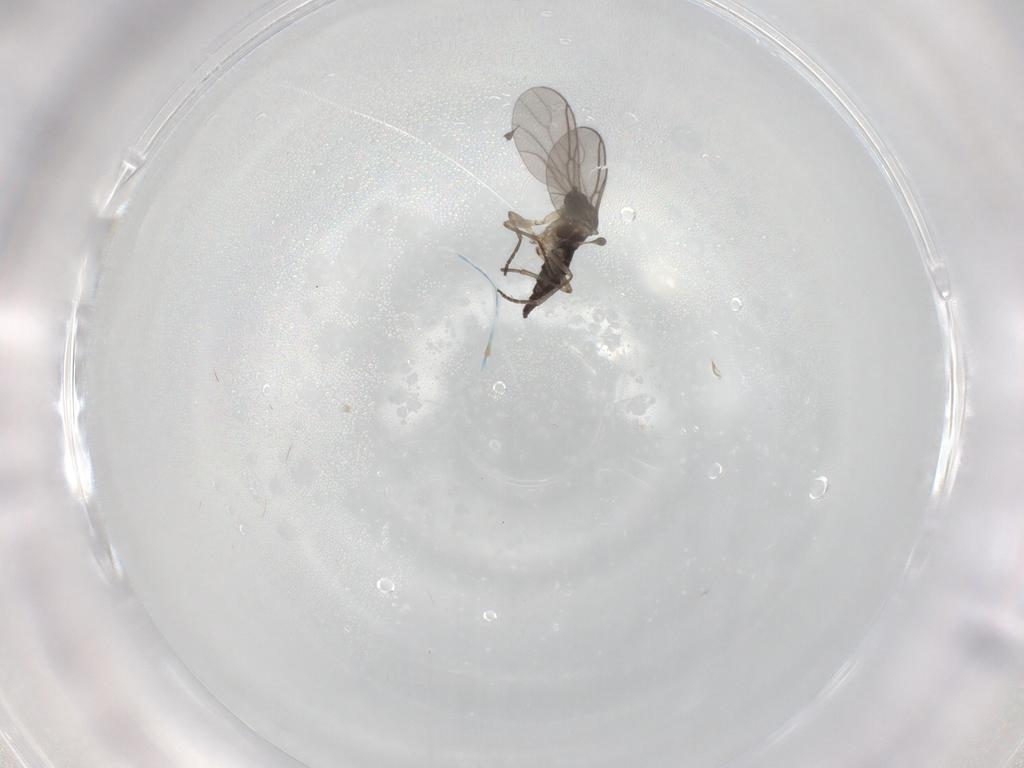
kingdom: Animalia
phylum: Arthropoda
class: Insecta
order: Diptera
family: Sciaridae
